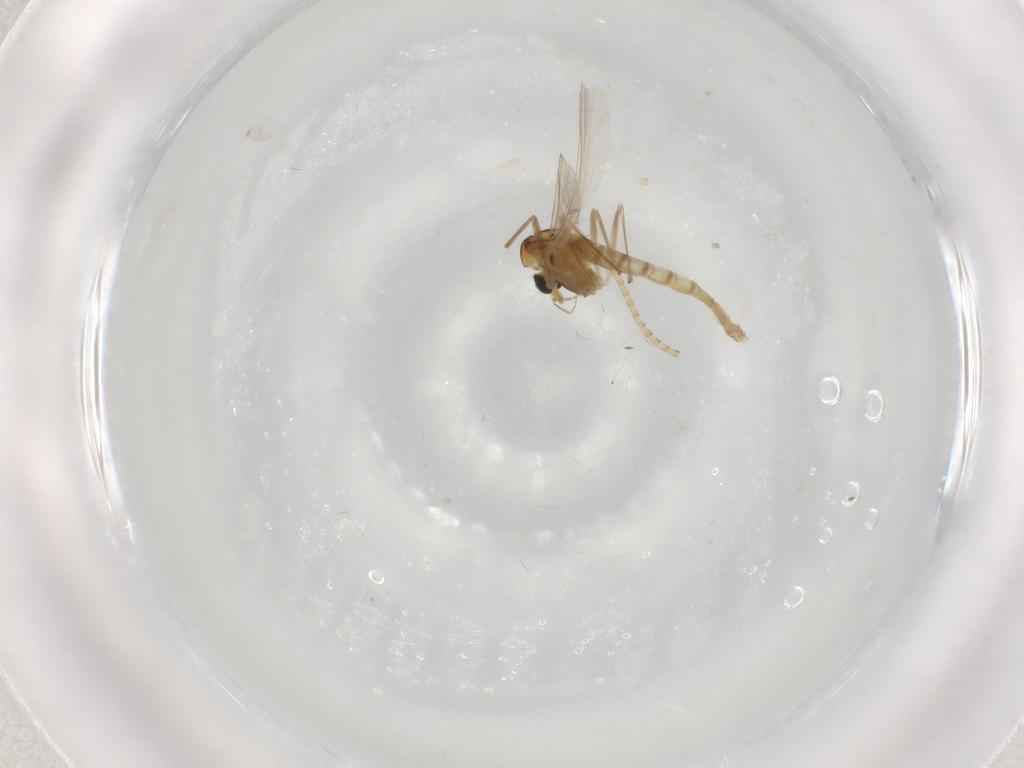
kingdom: Animalia
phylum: Arthropoda
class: Insecta
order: Diptera
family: Chironomidae
